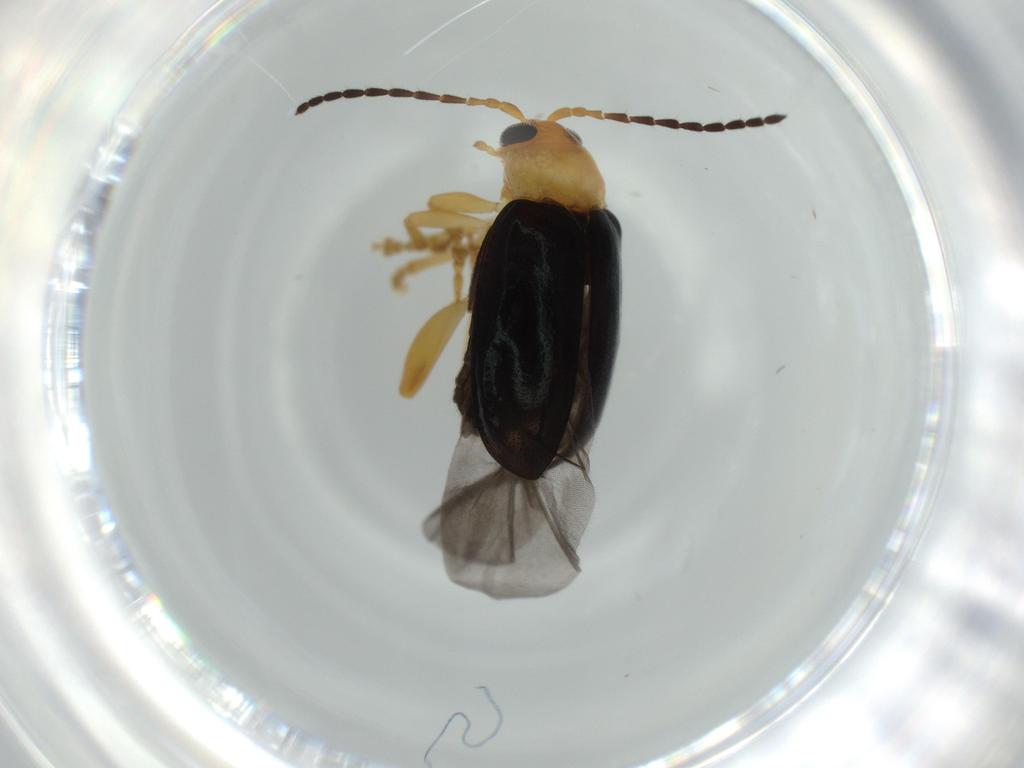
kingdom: Animalia
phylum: Arthropoda
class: Insecta
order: Coleoptera
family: Chrysomelidae
